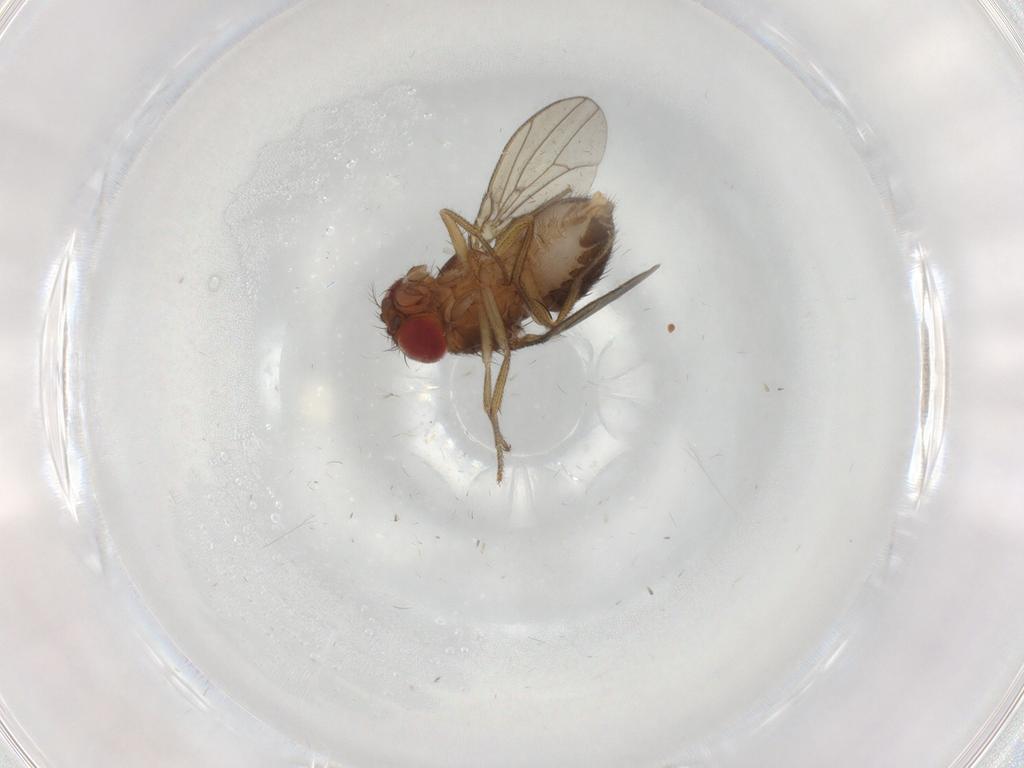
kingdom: Animalia
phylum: Arthropoda
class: Insecta
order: Diptera
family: Drosophilidae
